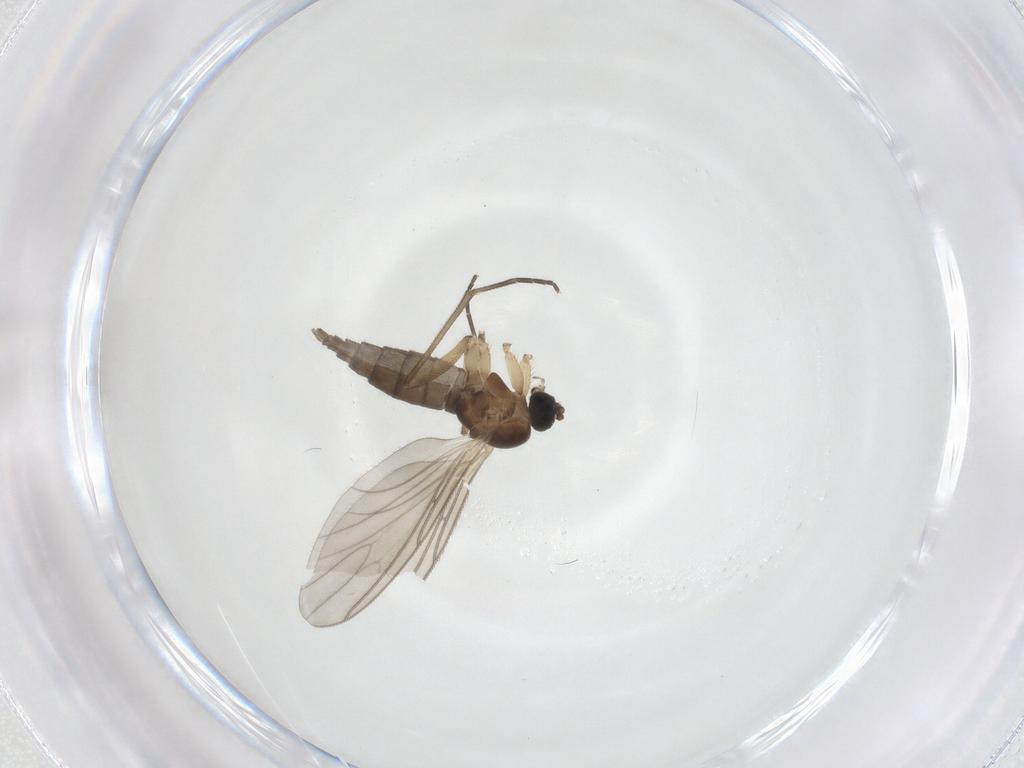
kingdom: Animalia
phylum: Arthropoda
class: Insecta
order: Diptera
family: Sciaridae
